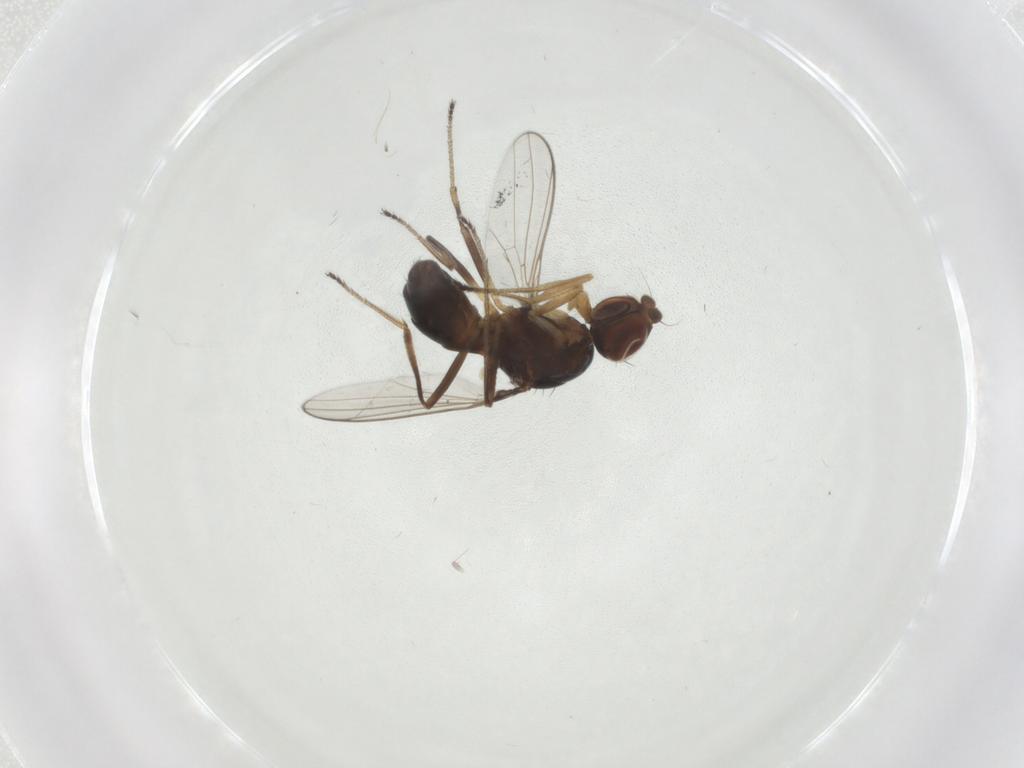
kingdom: Animalia
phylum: Arthropoda
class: Insecta
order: Diptera
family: Sepsidae
